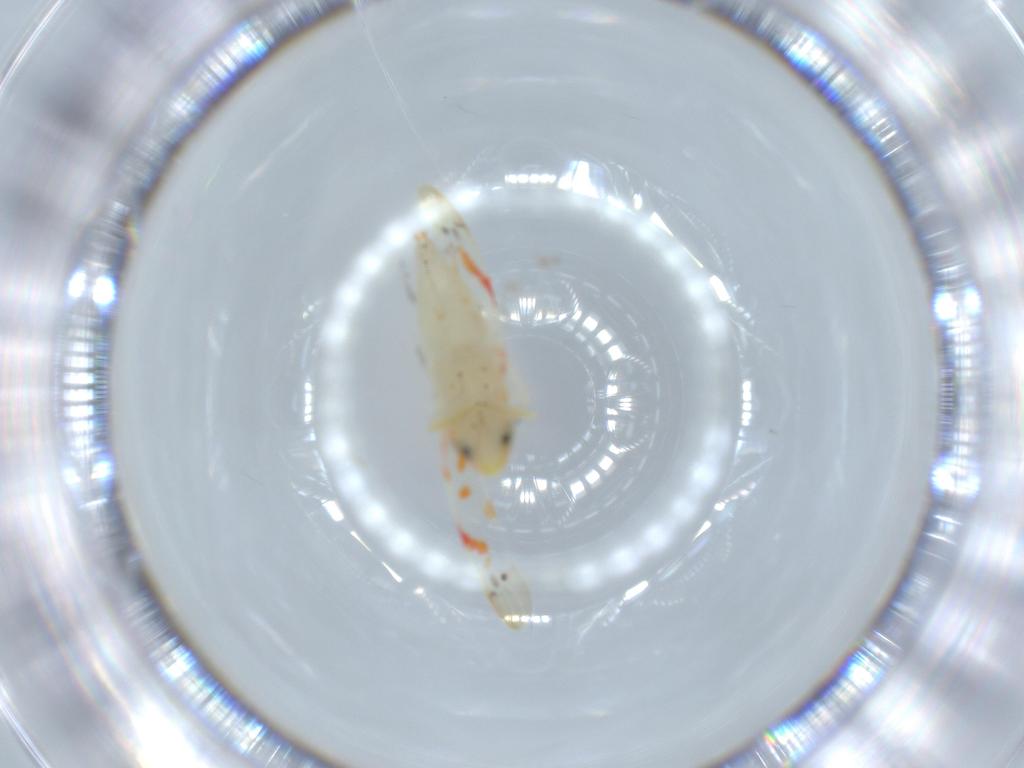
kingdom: Animalia
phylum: Arthropoda
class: Insecta
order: Hemiptera
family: Cicadellidae
